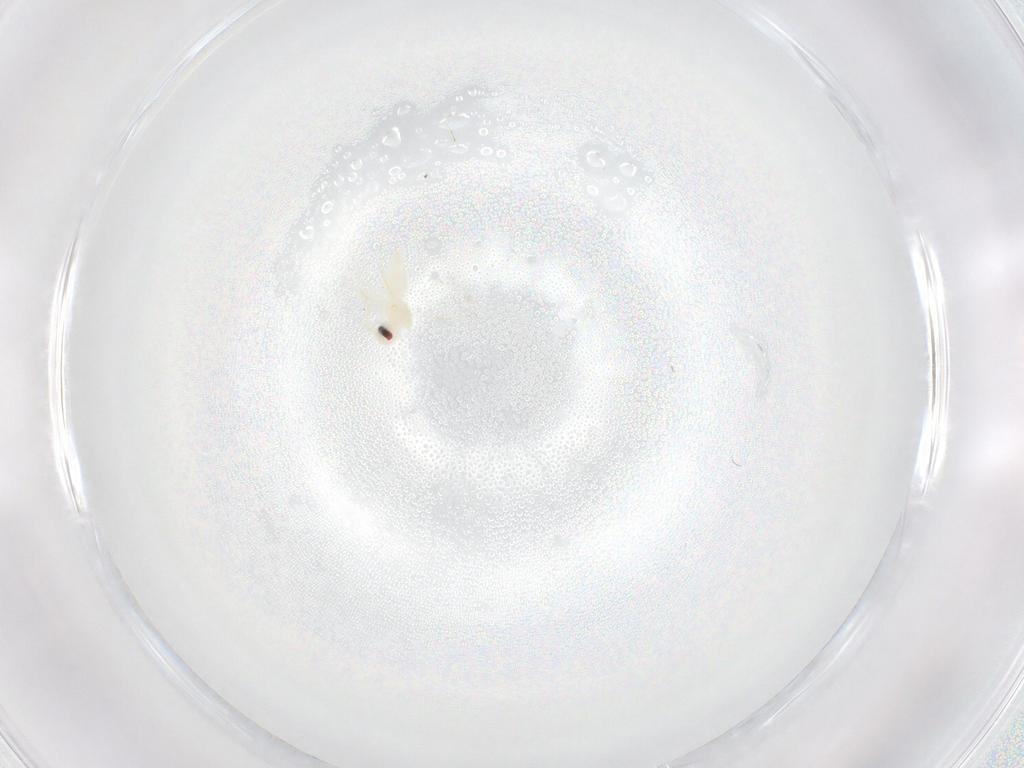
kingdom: Animalia
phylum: Arthropoda
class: Insecta
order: Hemiptera
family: Aleyrodidae
